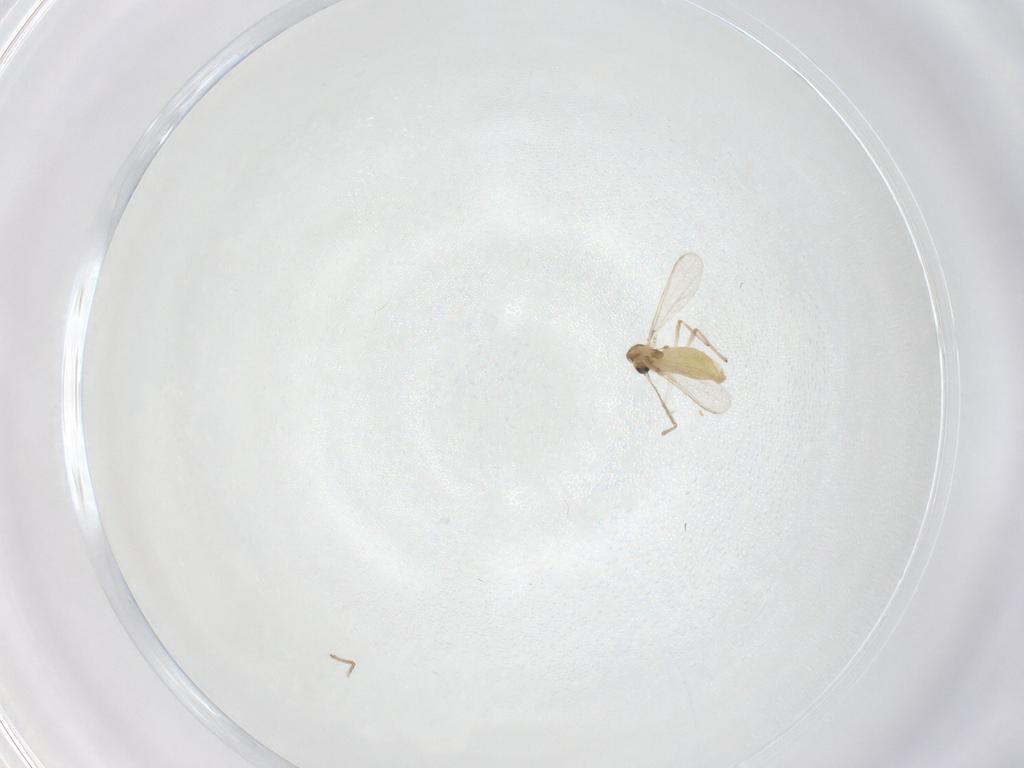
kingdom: Animalia
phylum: Arthropoda
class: Insecta
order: Diptera
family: Chironomidae
